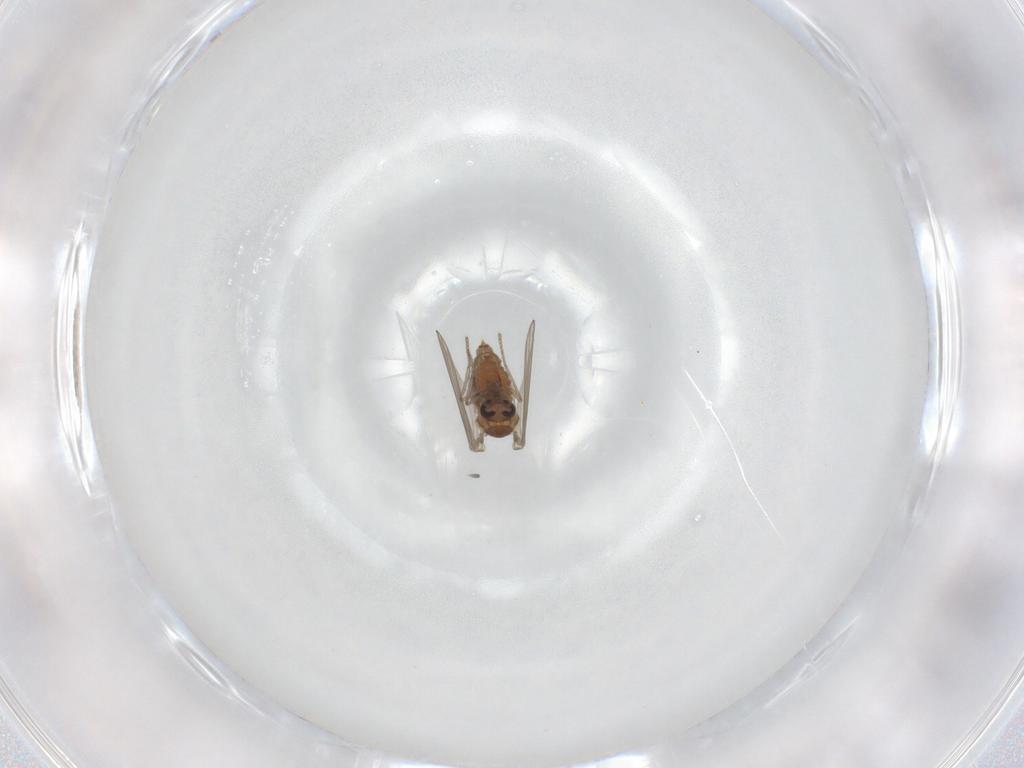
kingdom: Animalia
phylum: Arthropoda
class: Insecta
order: Diptera
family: Psychodidae
